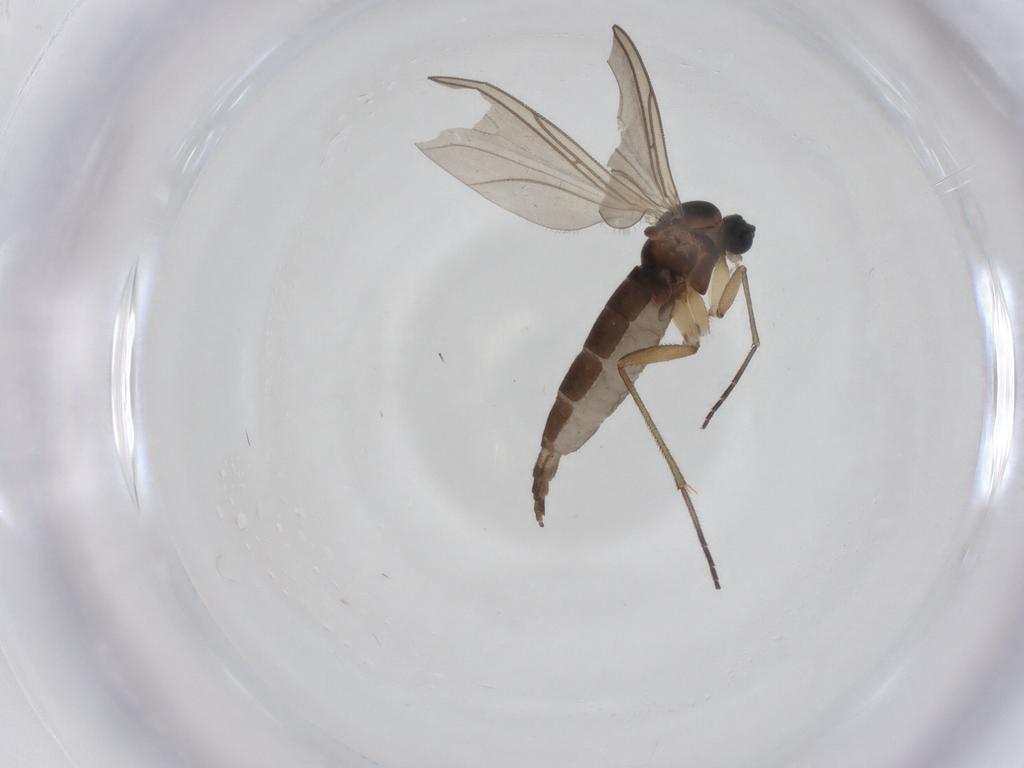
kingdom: Animalia
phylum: Arthropoda
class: Insecta
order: Diptera
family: Sciaridae
